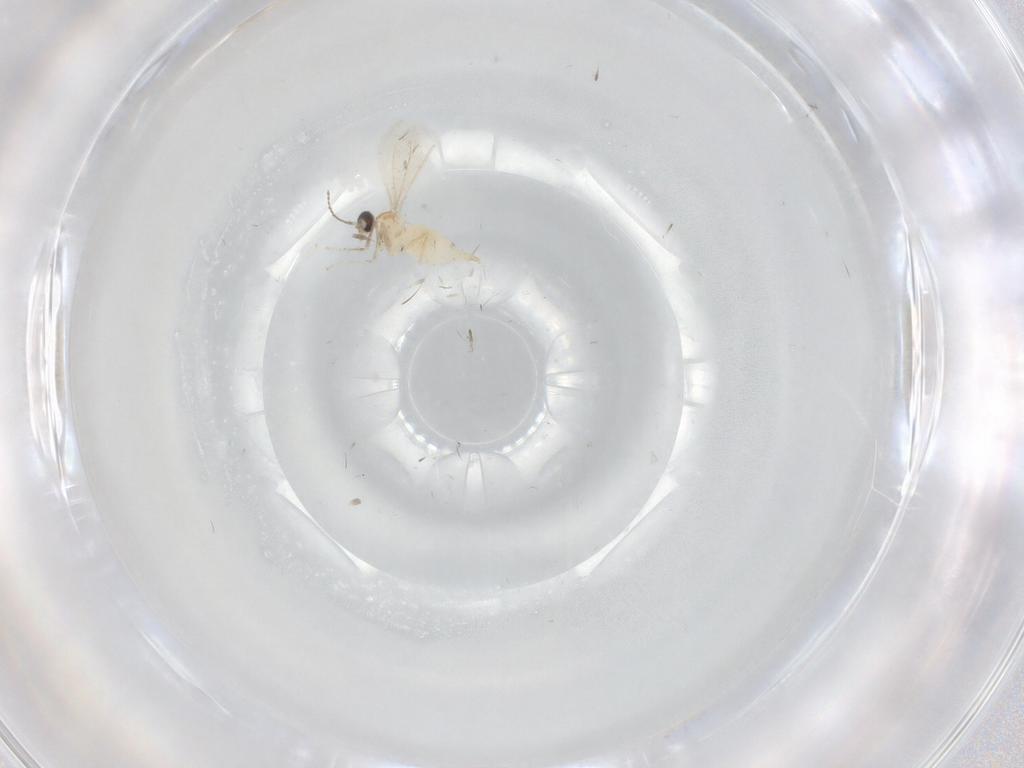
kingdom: Animalia
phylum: Arthropoda
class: Insecta
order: Diptera
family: Cecidomyiidae
